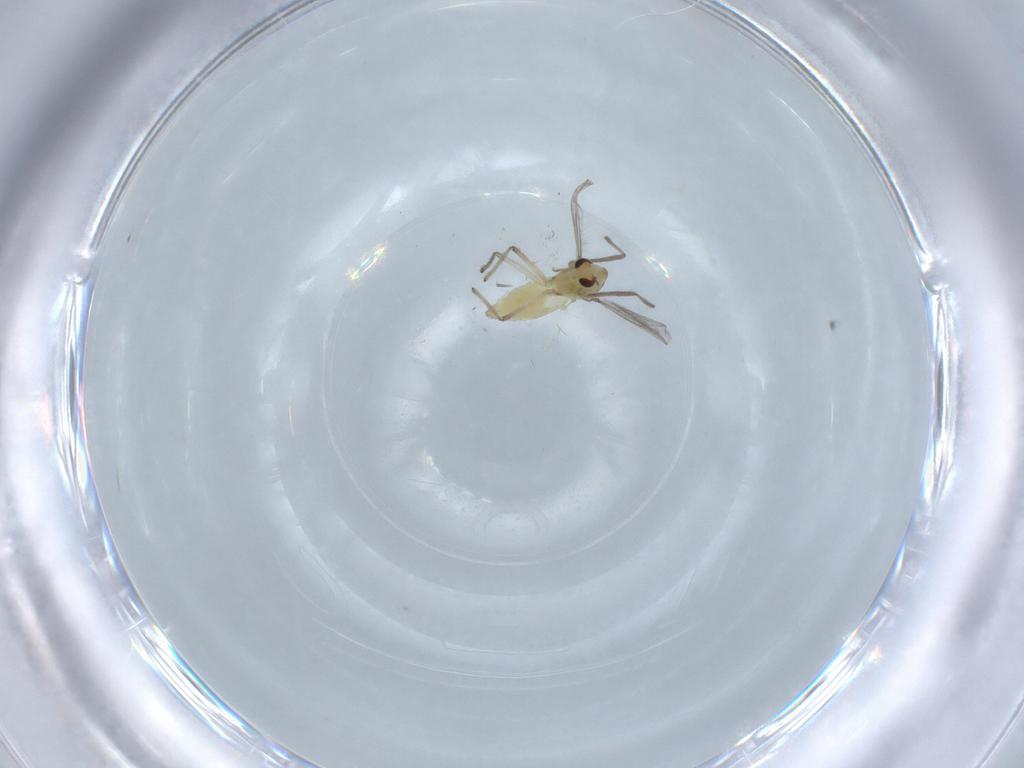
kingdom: Animalia
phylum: Arthropoda
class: Insecta
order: Diptera
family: Chironomidae
